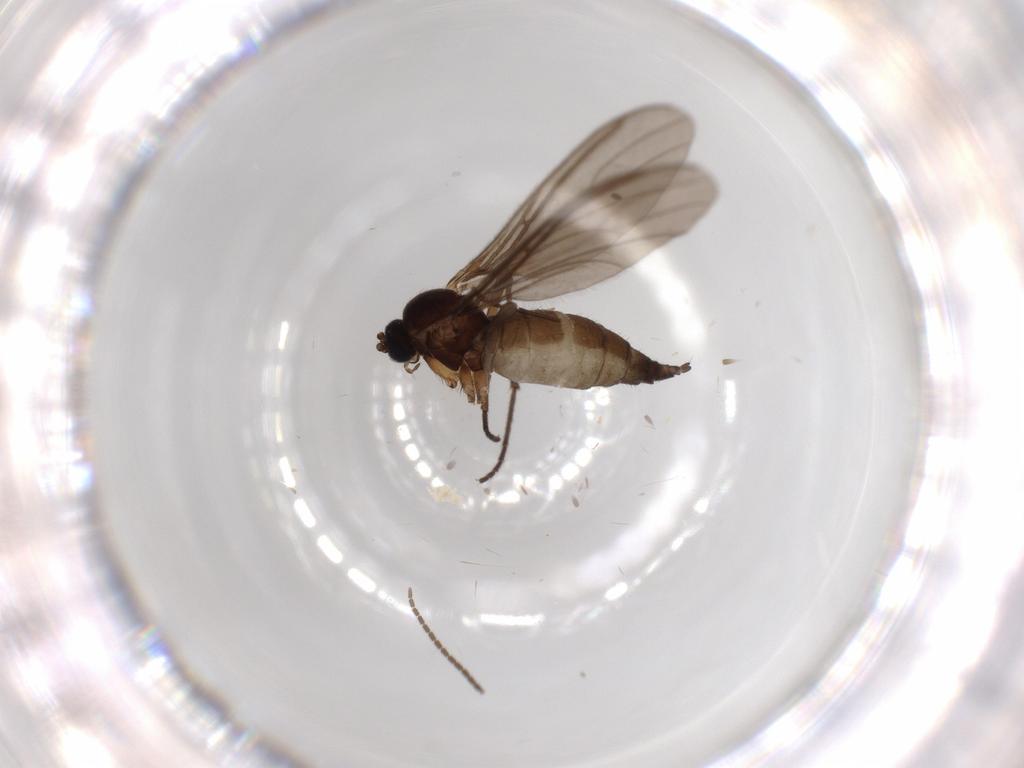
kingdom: Animalia
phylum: Arthropoda
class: Insecta
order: Diptera
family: Sciaridae
